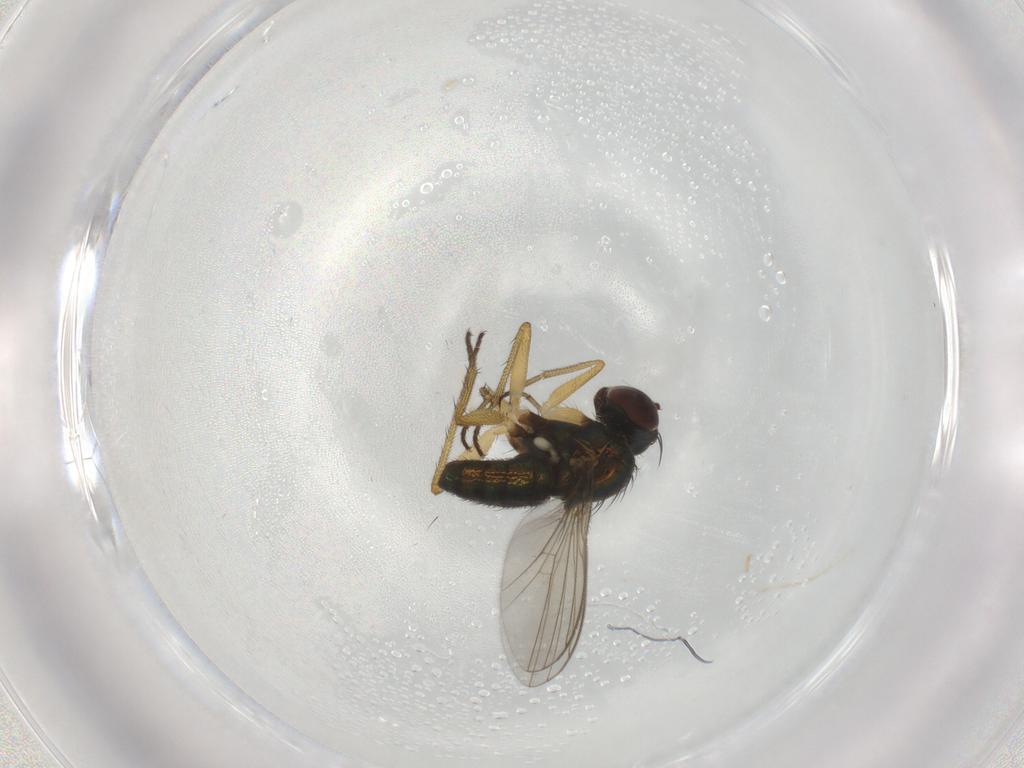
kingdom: Animalia
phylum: Arthropoda
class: Insecta
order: Diptera
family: Dolichopodidae
